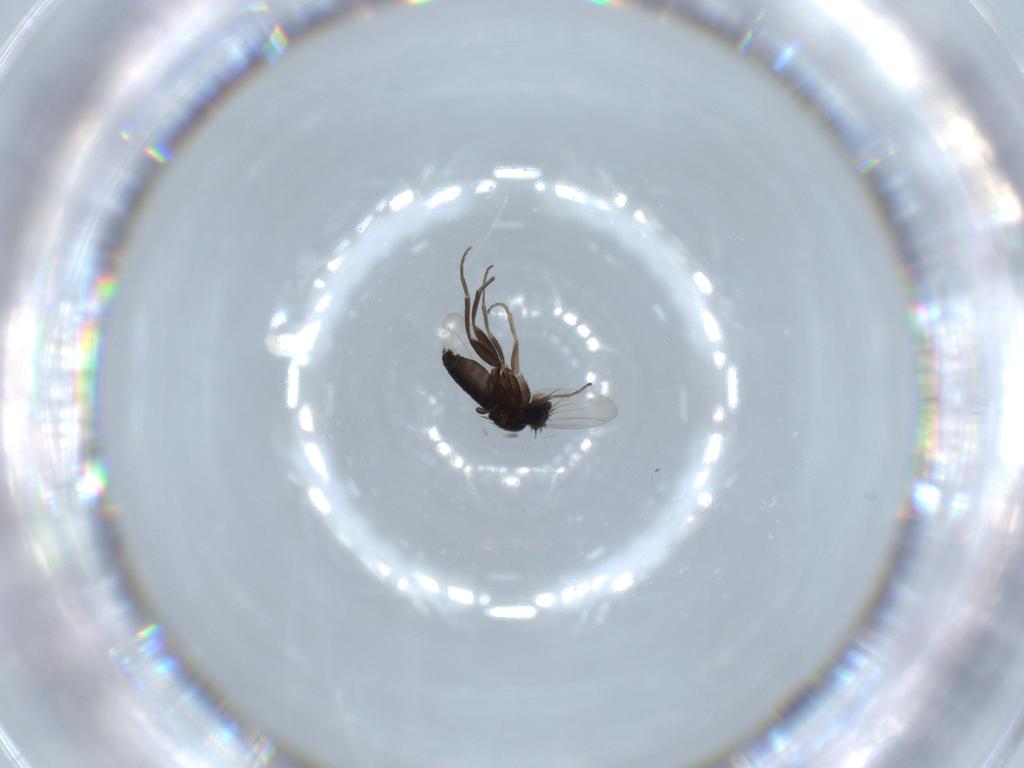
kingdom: Animalia
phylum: Arthropoda
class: Insecta
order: Diptera
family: Phoridae
